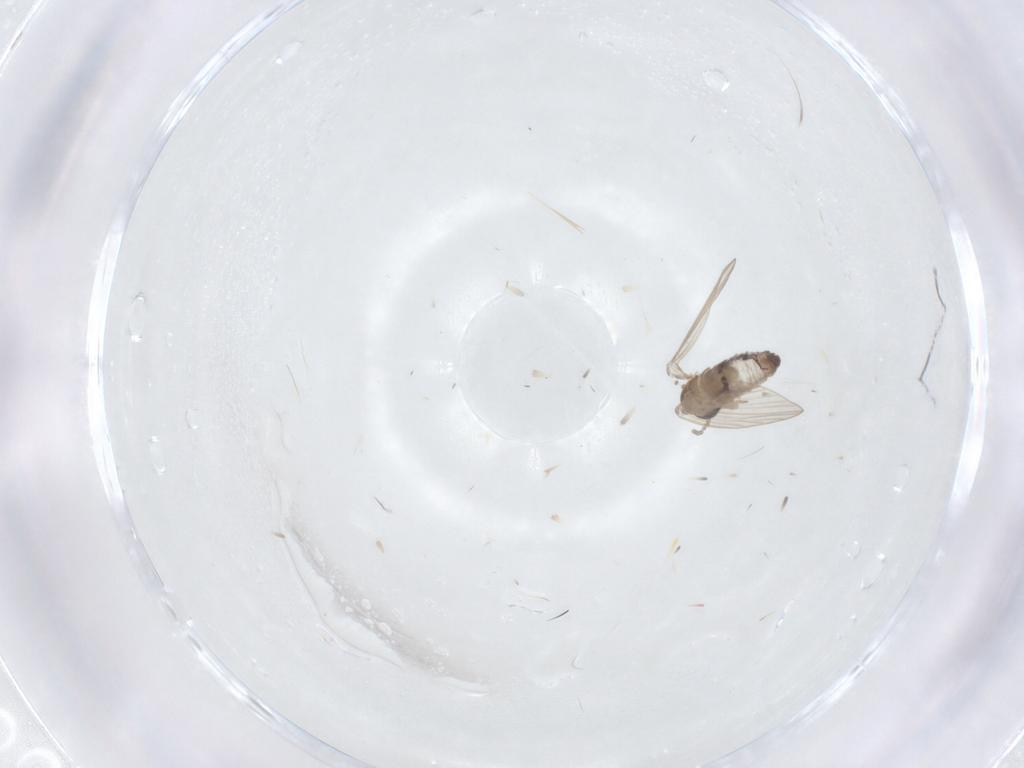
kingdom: Animalia
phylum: Arthropoda
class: Insecta
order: Diptera
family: Psychodidae
